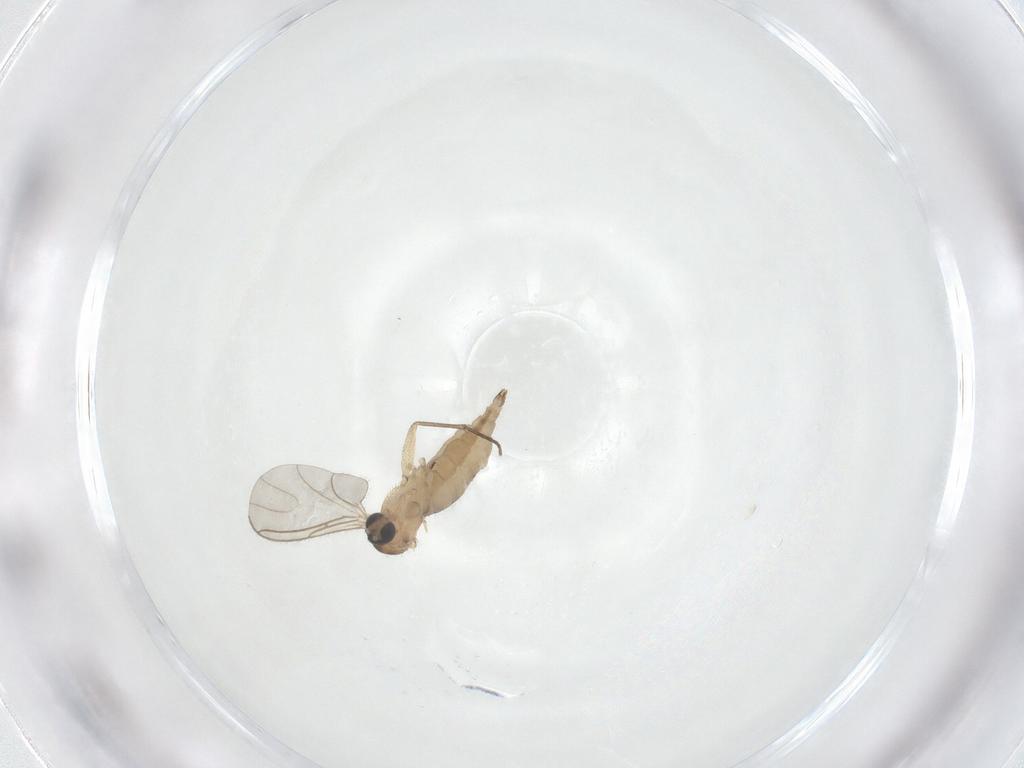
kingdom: Animalia
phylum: Arthropoda
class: Insecta
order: Diptera
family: Sciaridae
